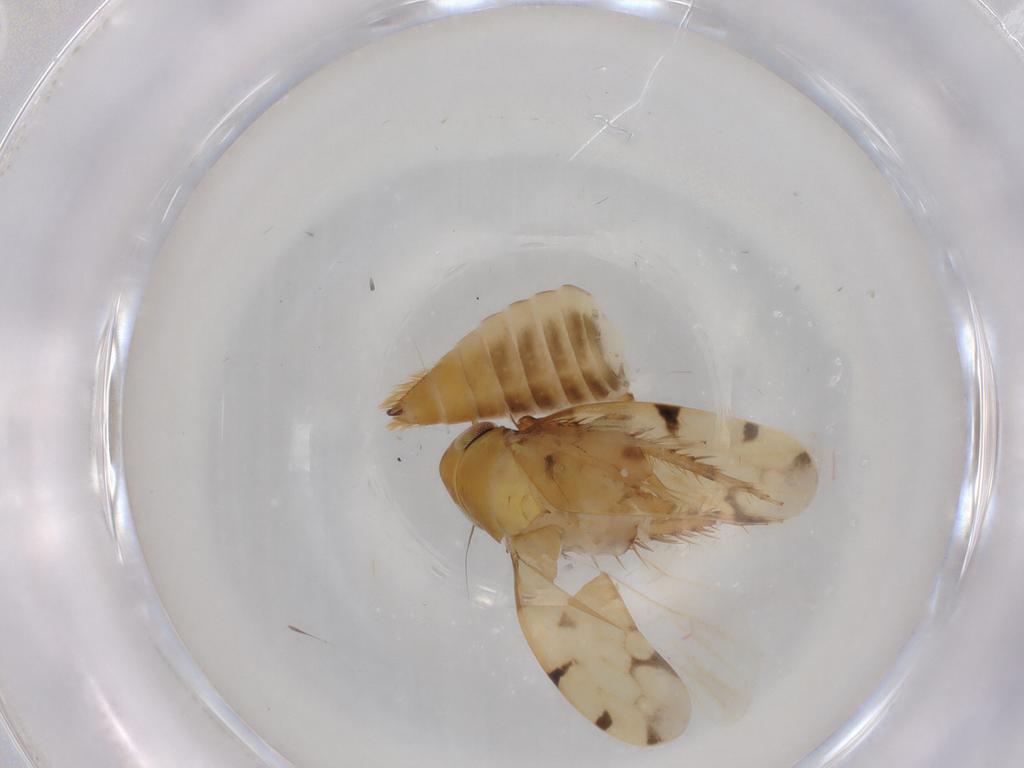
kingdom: Animalia
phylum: Arthropoda
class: Insecta
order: Hemiptera
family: Cicadellidae
